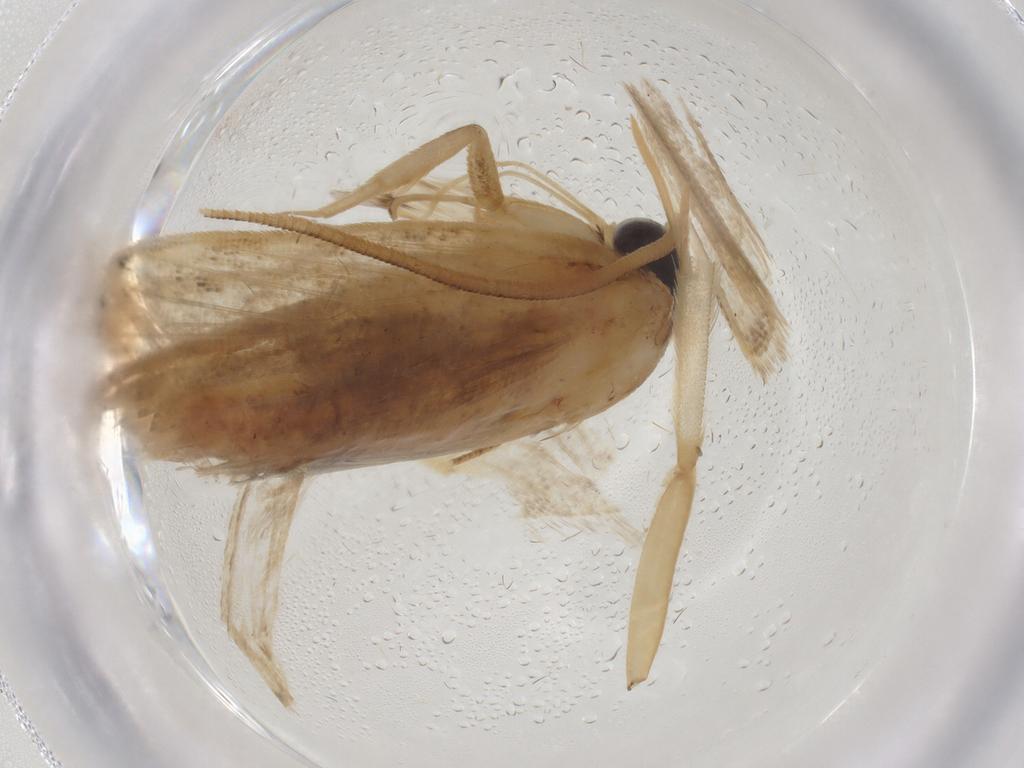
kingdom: Animalia
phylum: Arthropoda
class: Insecta
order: Lepidoptera
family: Depressariidae
